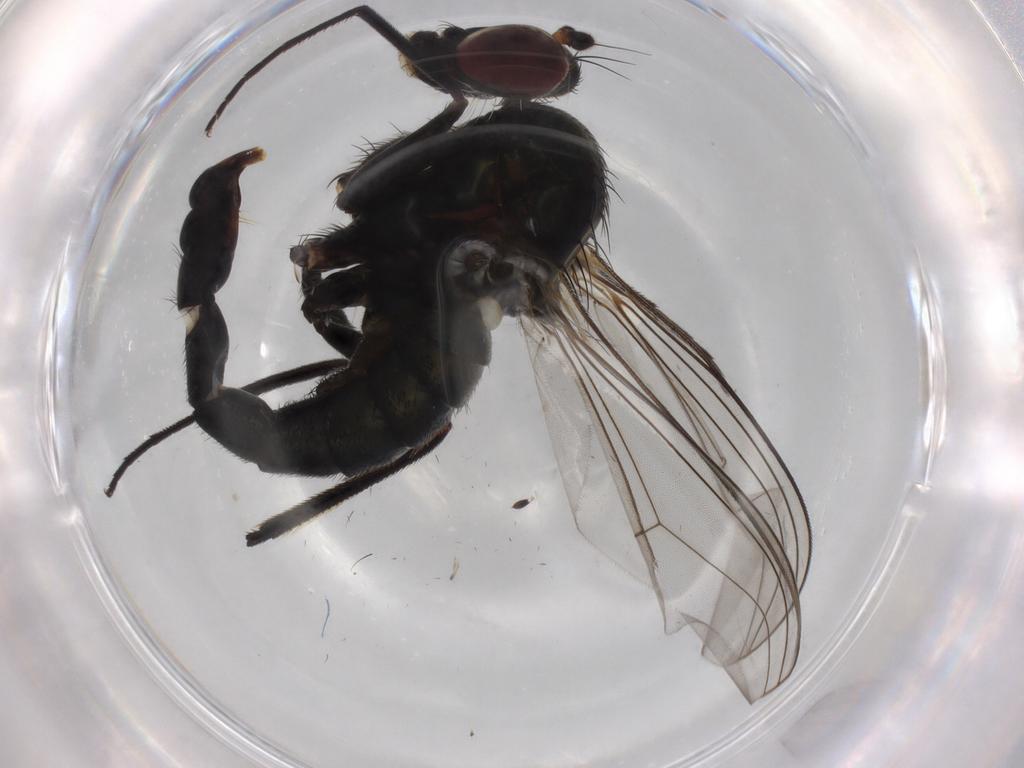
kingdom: Animalia
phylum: Arthropoda
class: Insecta
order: Diptera
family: Dolichopodidae
